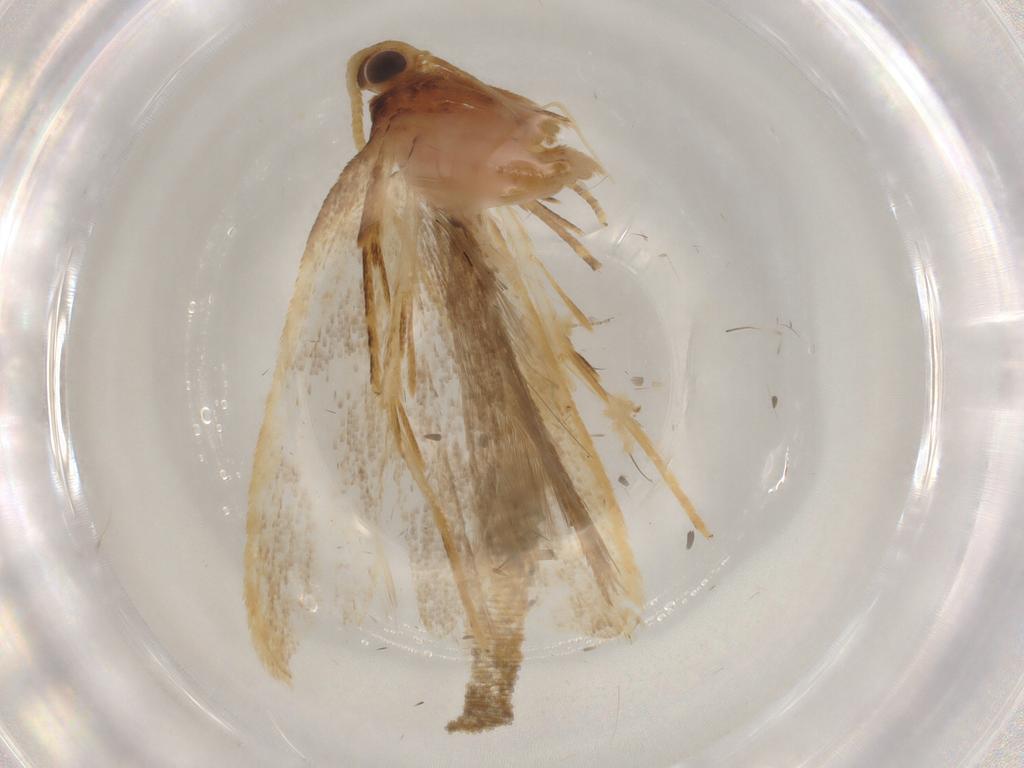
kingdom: Animalia
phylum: Arthropoda
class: Insecta
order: Lepidoptera
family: Lecithoceridae
